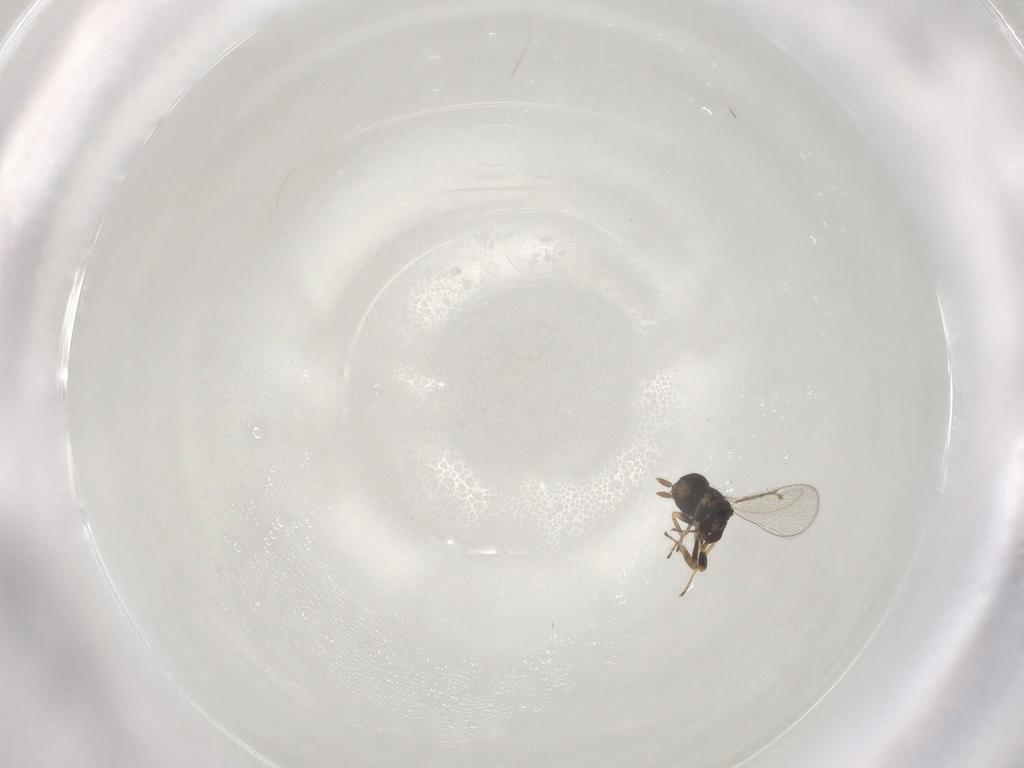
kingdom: Animalia
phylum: Arthropoda
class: Insecta
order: Hymenoptera
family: Eulophidae
